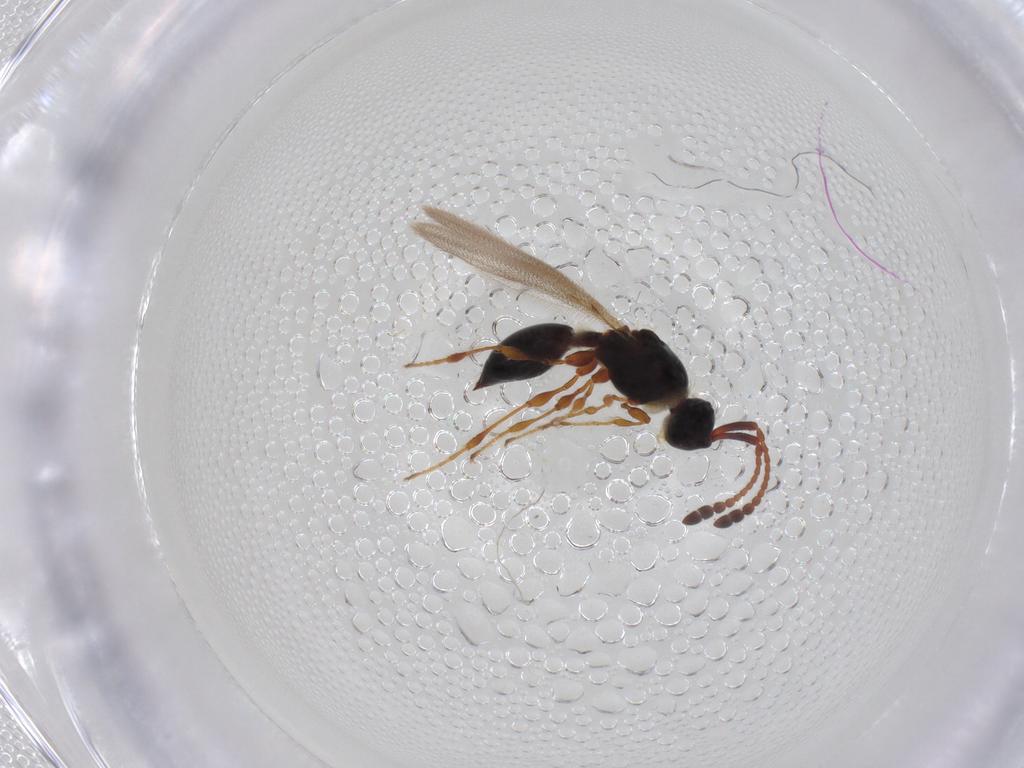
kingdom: Animalia
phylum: Arthropoda
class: Insecta
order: Hymenoptera
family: Diapriidae
